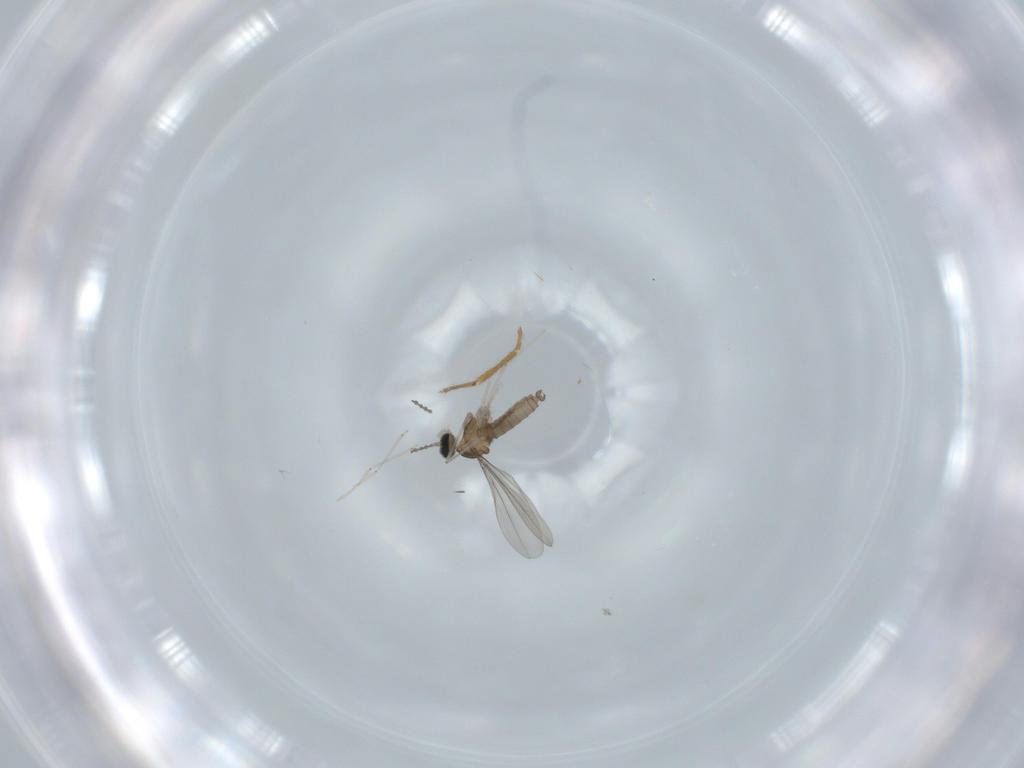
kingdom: Animalia
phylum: Arthropoda
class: Insecta
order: Diptera
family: Cecidomyiidae
